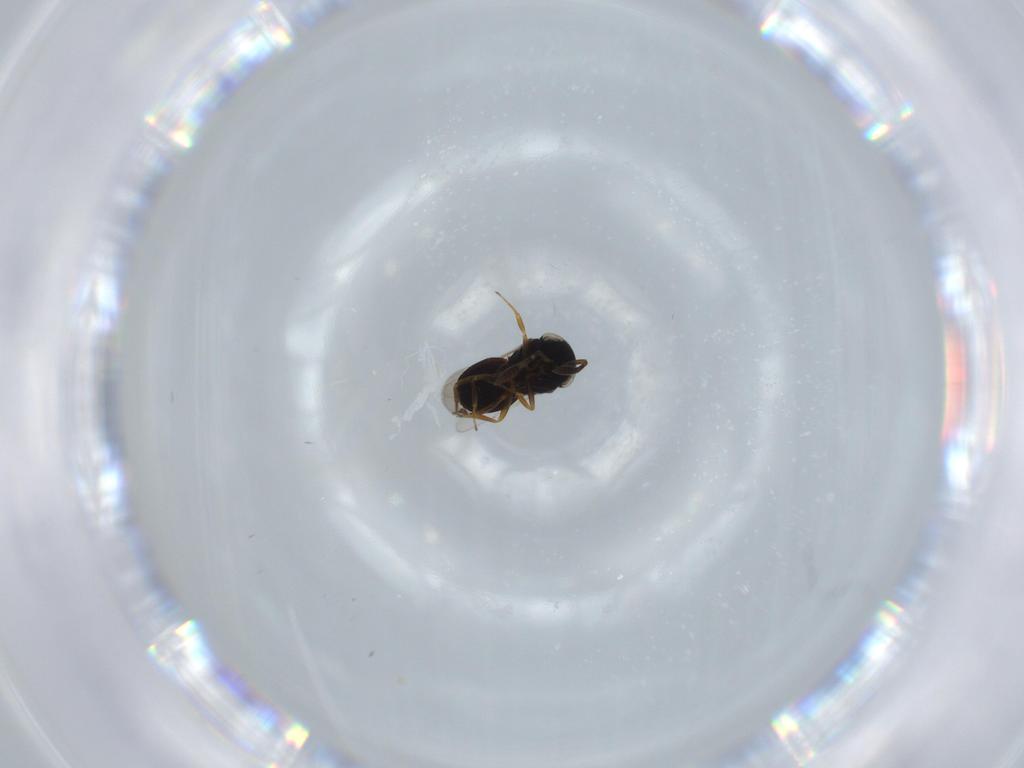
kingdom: Animalia
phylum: Arthropoda
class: Insecta
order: Hymenoptera
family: Scelionidae
